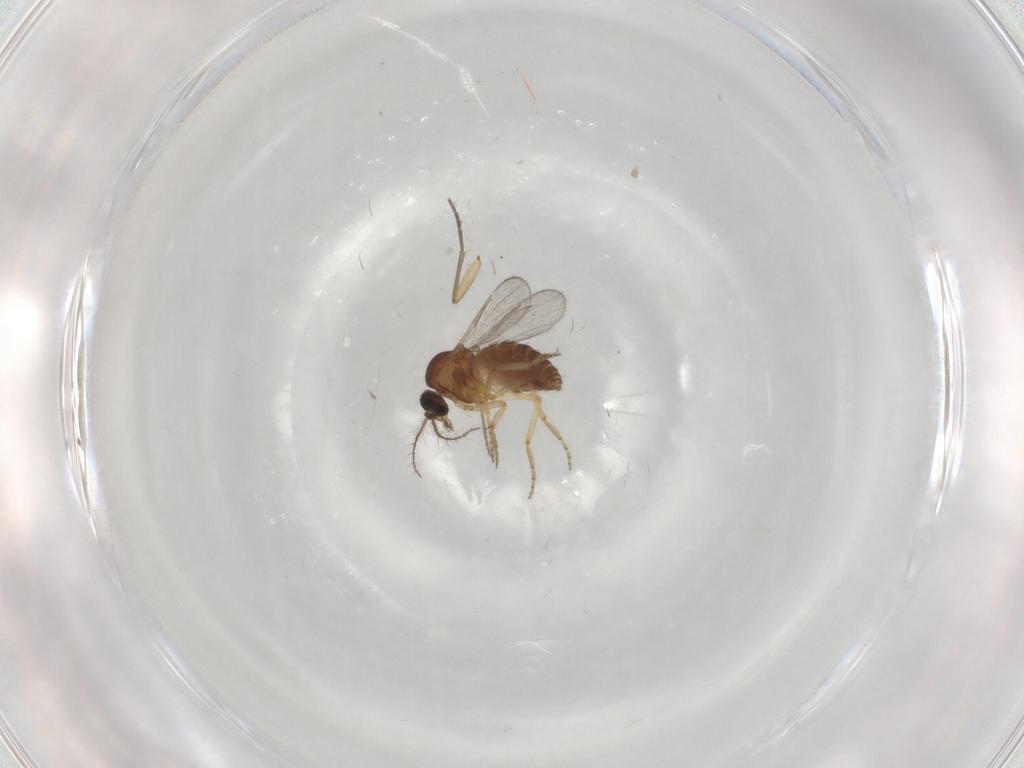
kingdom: Animalia
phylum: Arthropoda
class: Insecta
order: Diptera
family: Ceratopogonidae
